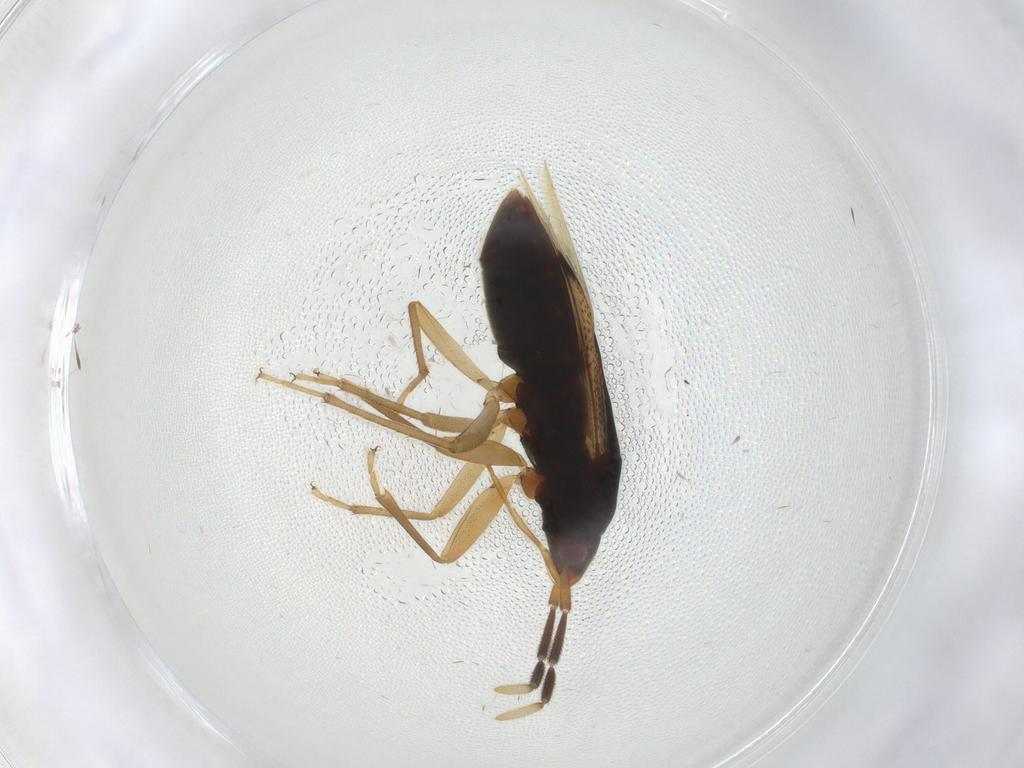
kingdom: Animalia
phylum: Arthropoda
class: Insecta
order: Hemiptera
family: Rhyparochromidae
